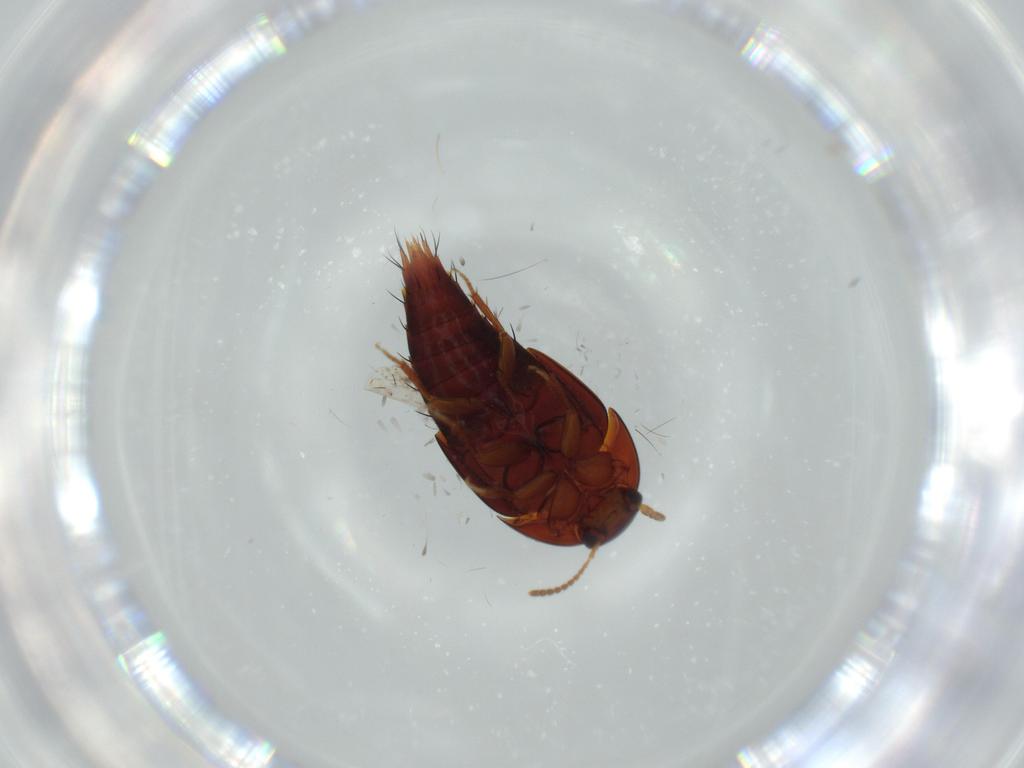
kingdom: Animalia
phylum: Arthropoda
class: Insecta
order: Coleoptera
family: Staphylinidae
